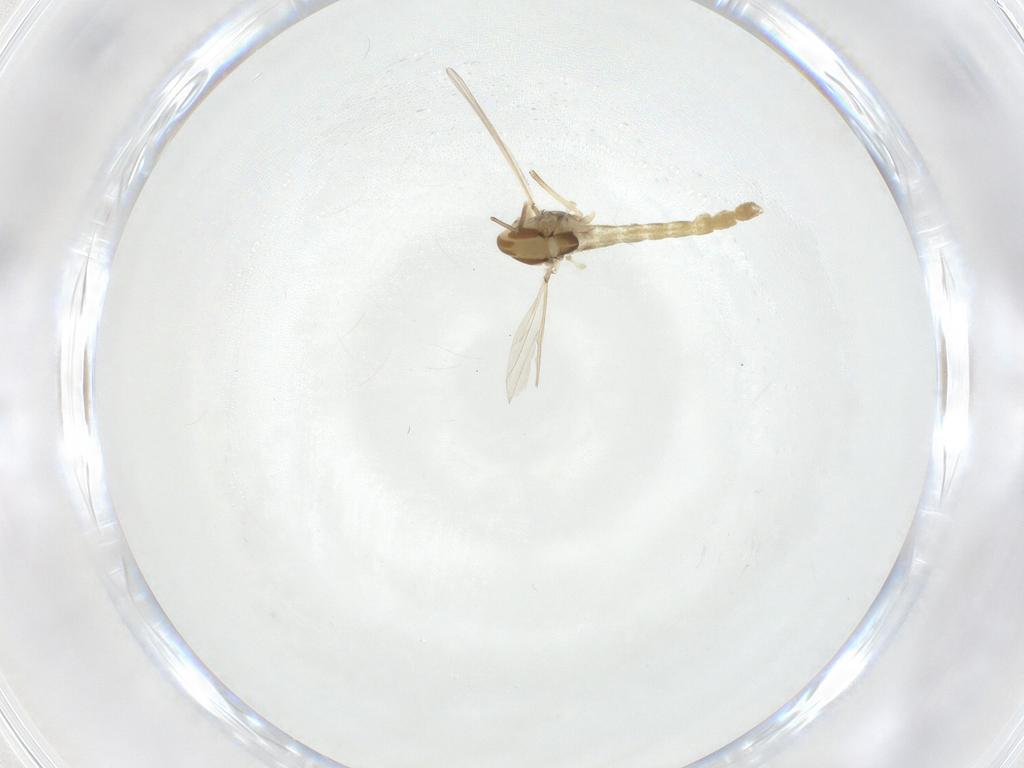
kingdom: Animalia
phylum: Arthropoda
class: Insecta
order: Diptera
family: Chironomidae
